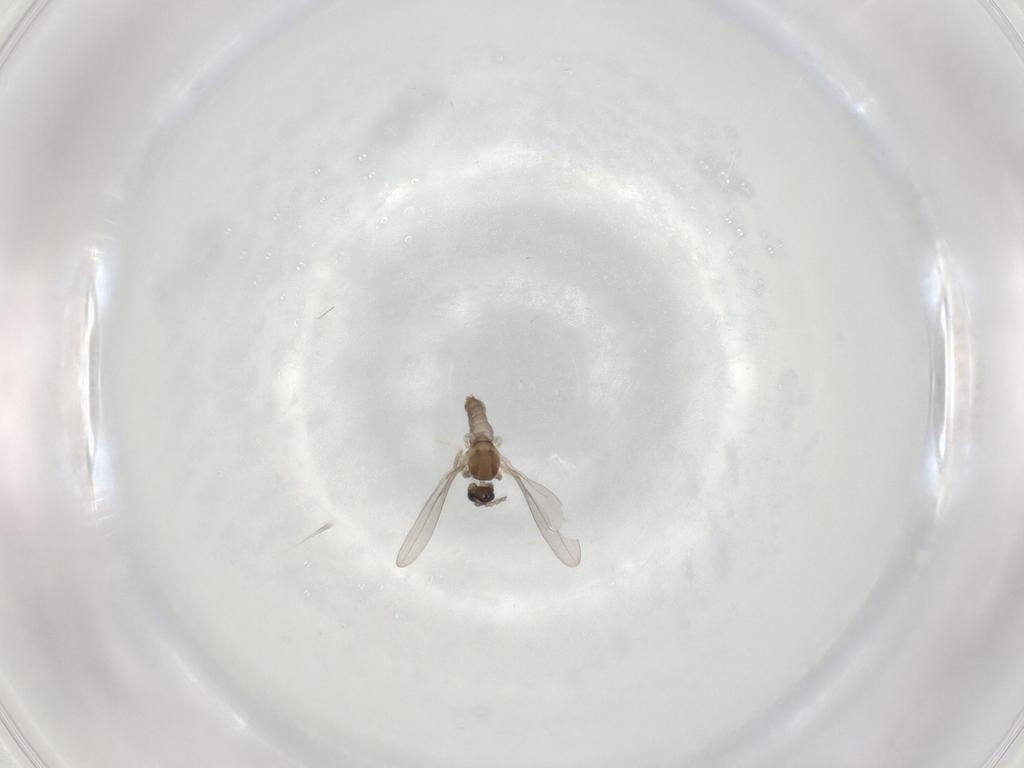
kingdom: Animalia
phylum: Arthropoda
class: Insecta
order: Diptera
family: Cecidomyiidae
